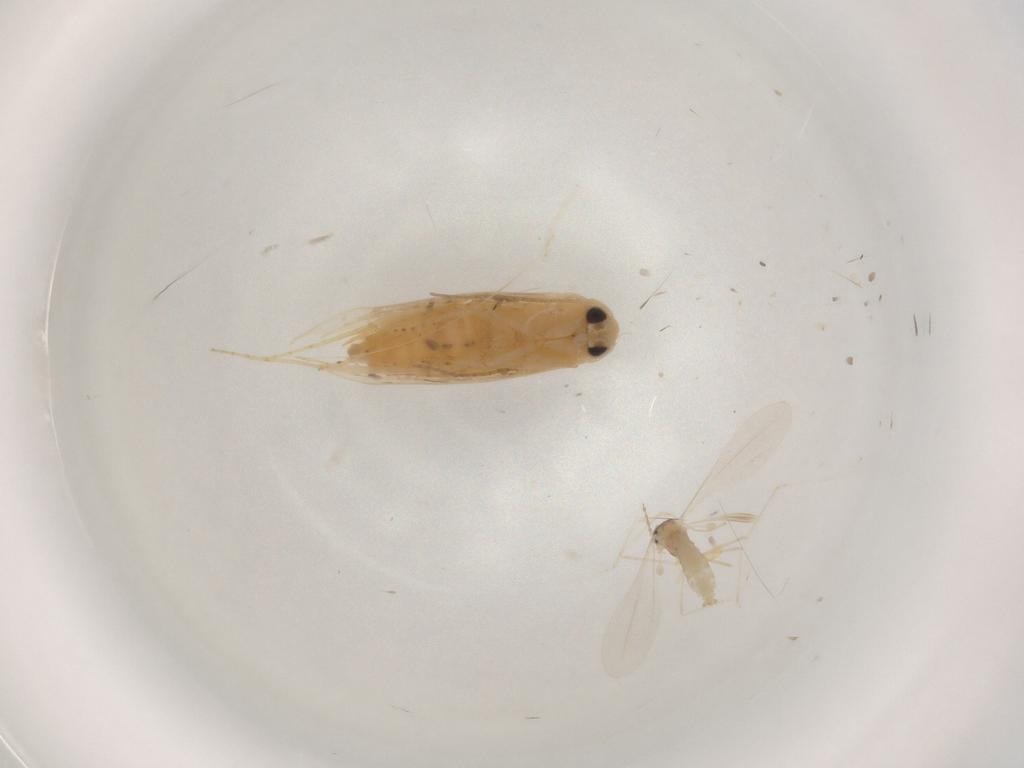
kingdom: Animalia
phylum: Arthropoda
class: Insecta
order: Lepidoptera
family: Bucculatricidae
